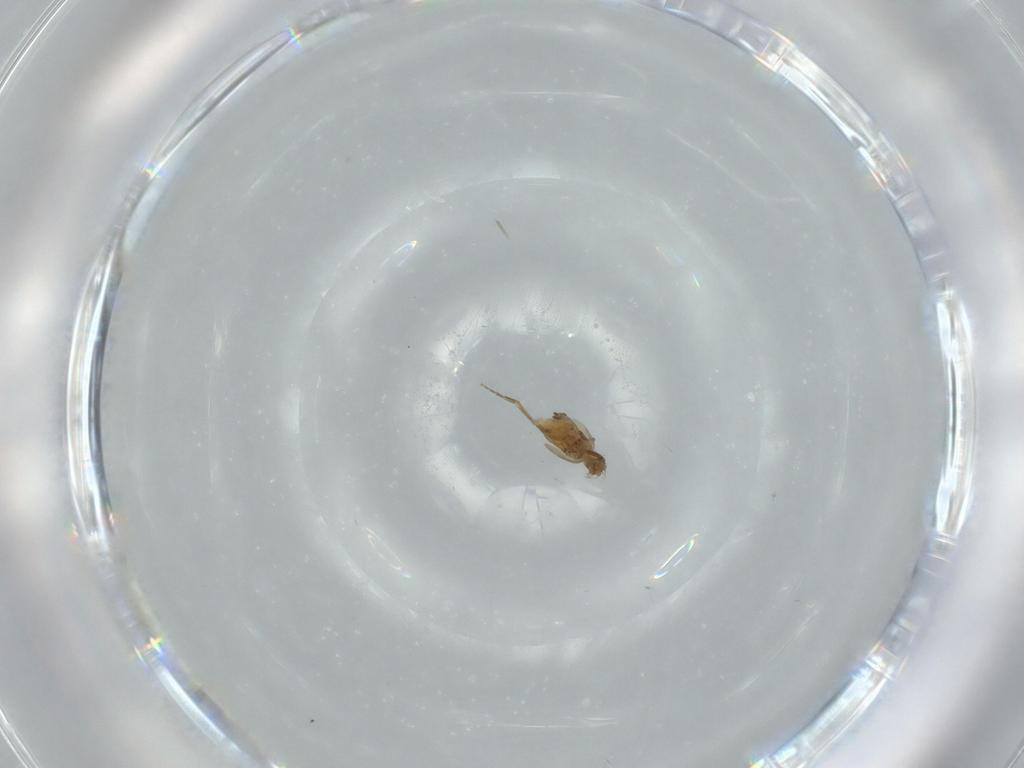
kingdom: Animalia
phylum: Arthropoda
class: Insecta
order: Diptera
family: Phoridae
